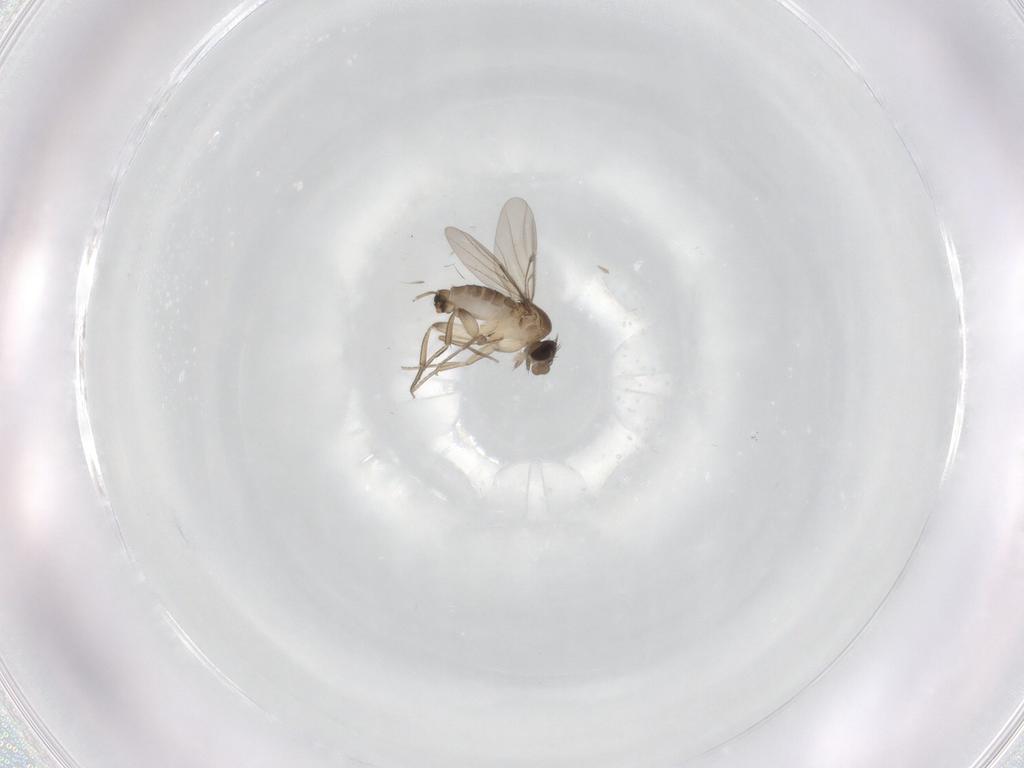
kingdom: Animalia
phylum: Arthropoda
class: Insecta
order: Diptera
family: Phoridae
